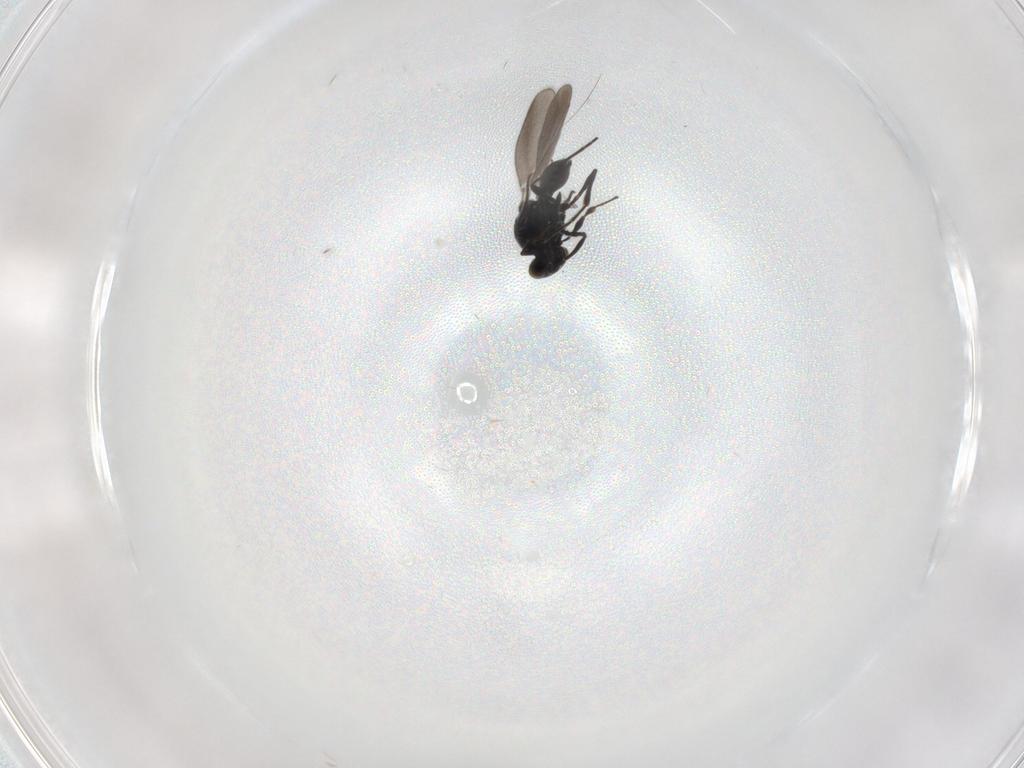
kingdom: Animalia
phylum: Arthropoda
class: Insecta
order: Hymenoptera
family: Platygastridae
